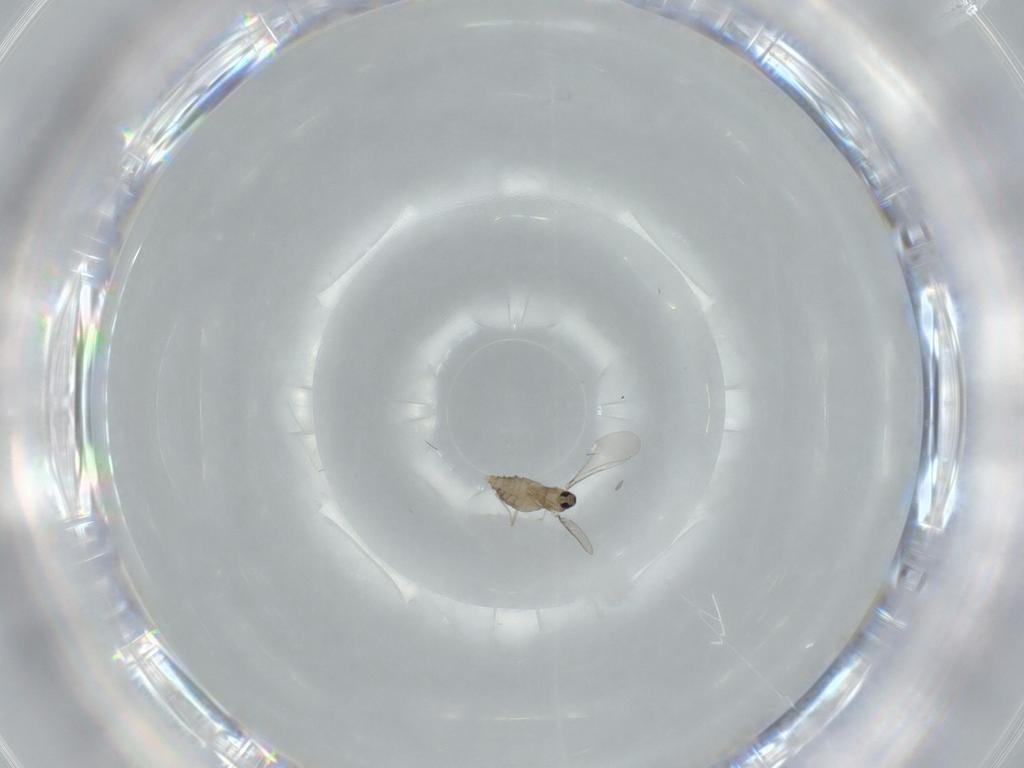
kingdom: Animalia
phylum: Arthropoda
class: Insecta
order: Diptera
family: Cecidomyiidae
